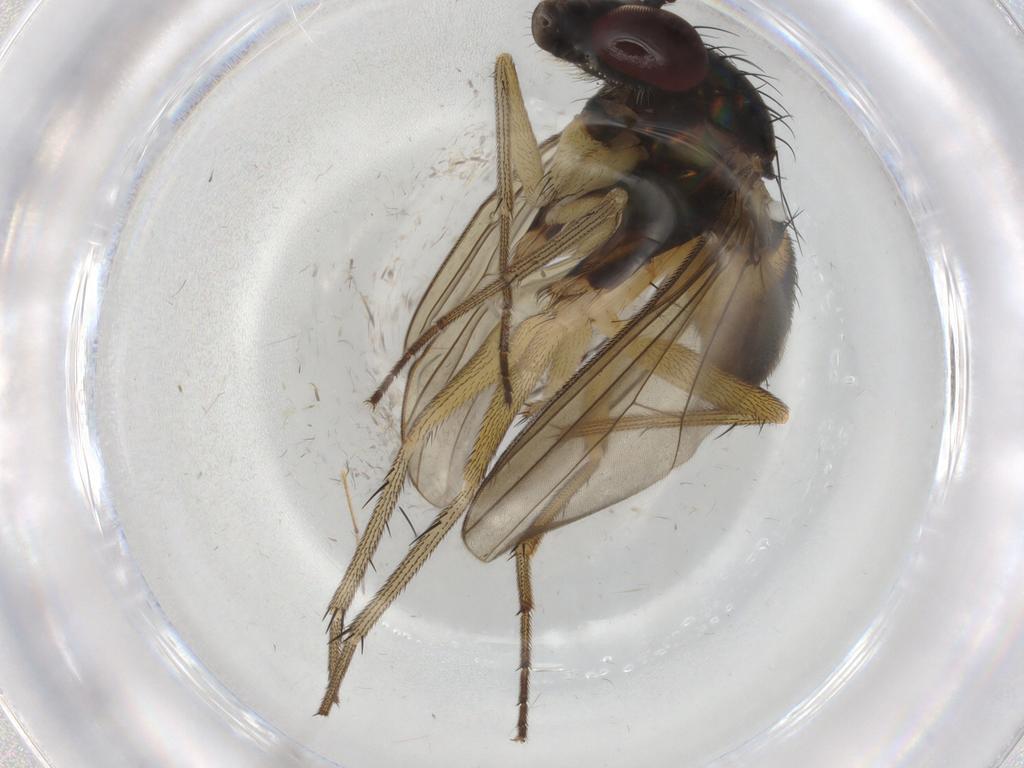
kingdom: Animalia
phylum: Arthropoda
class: Insecta
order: Diptera
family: Dolichopodidae
